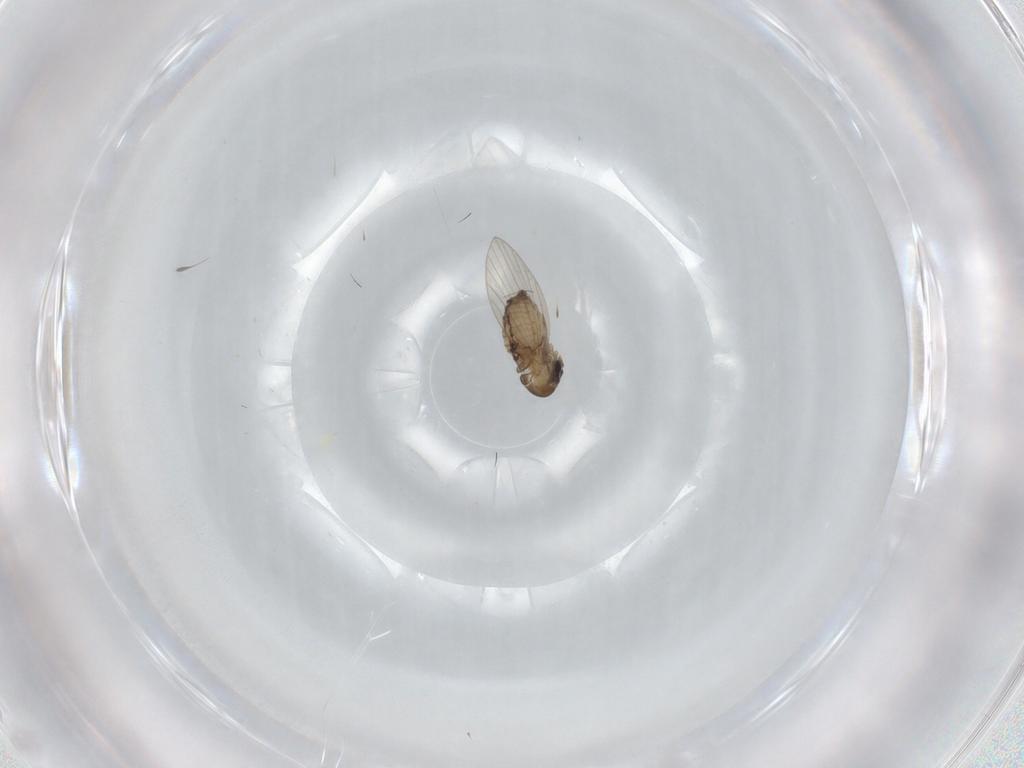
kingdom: Animalia
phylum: Arthropoda
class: Insecta
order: Diptera
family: Psychodidae
